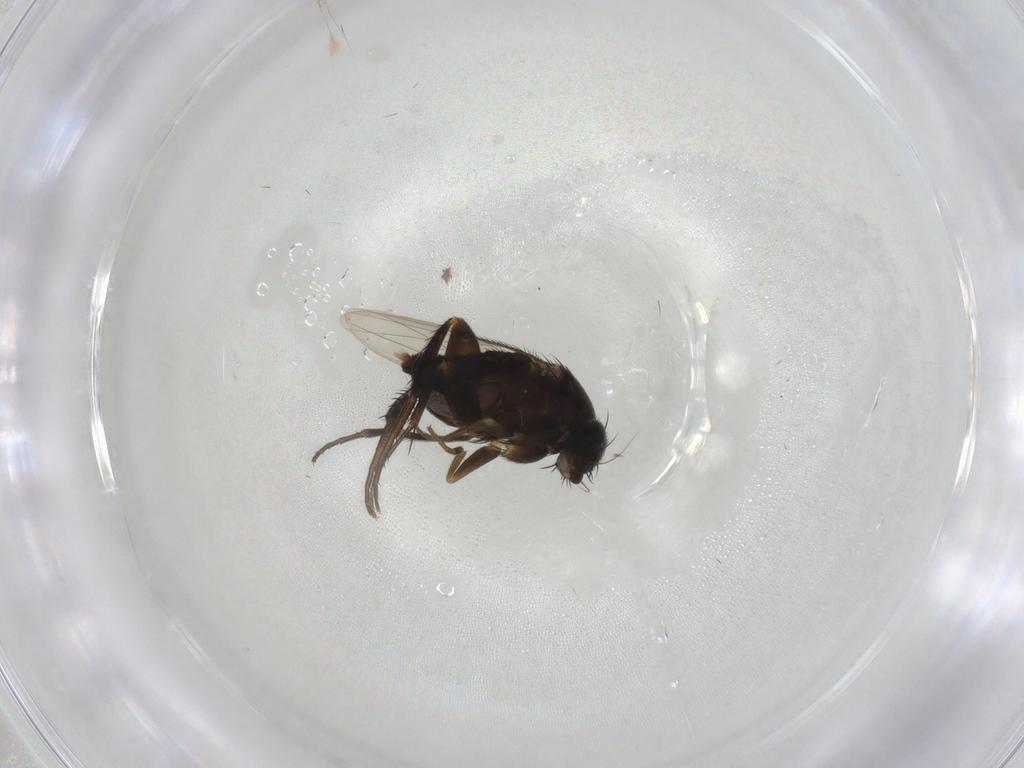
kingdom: Animalia
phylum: Arthropoda
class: Insecta
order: Diptera
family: Phoridae
